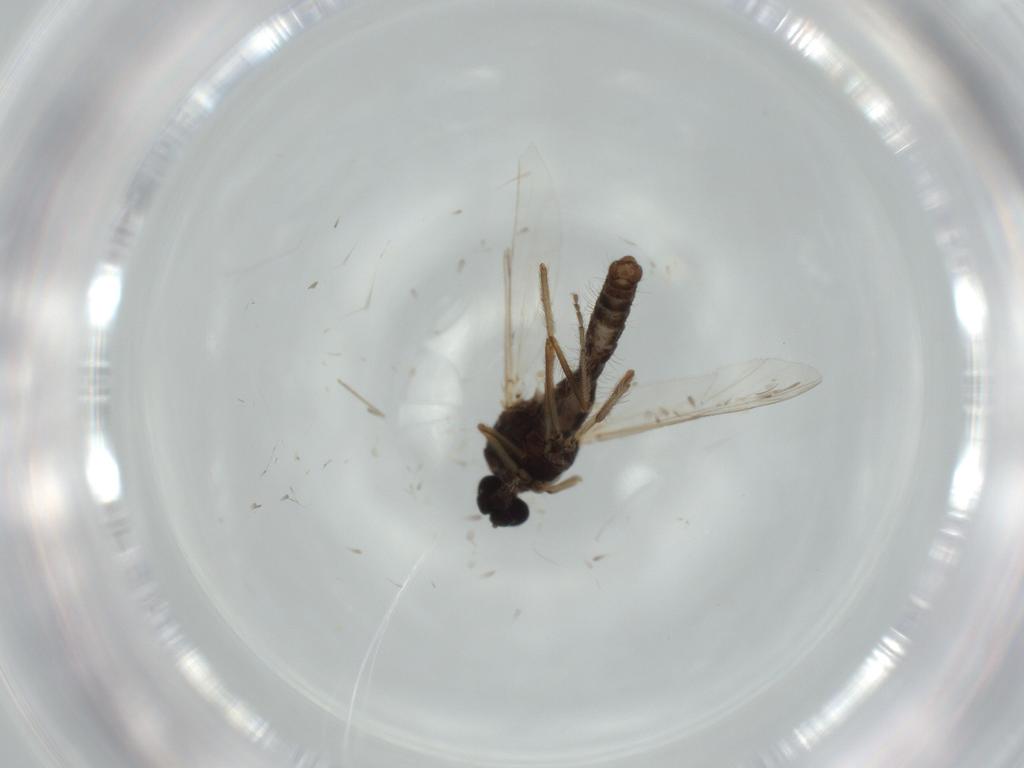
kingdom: Animalia
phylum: Arthropoda
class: Insecta
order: Diptera
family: Ceratopogonidae
